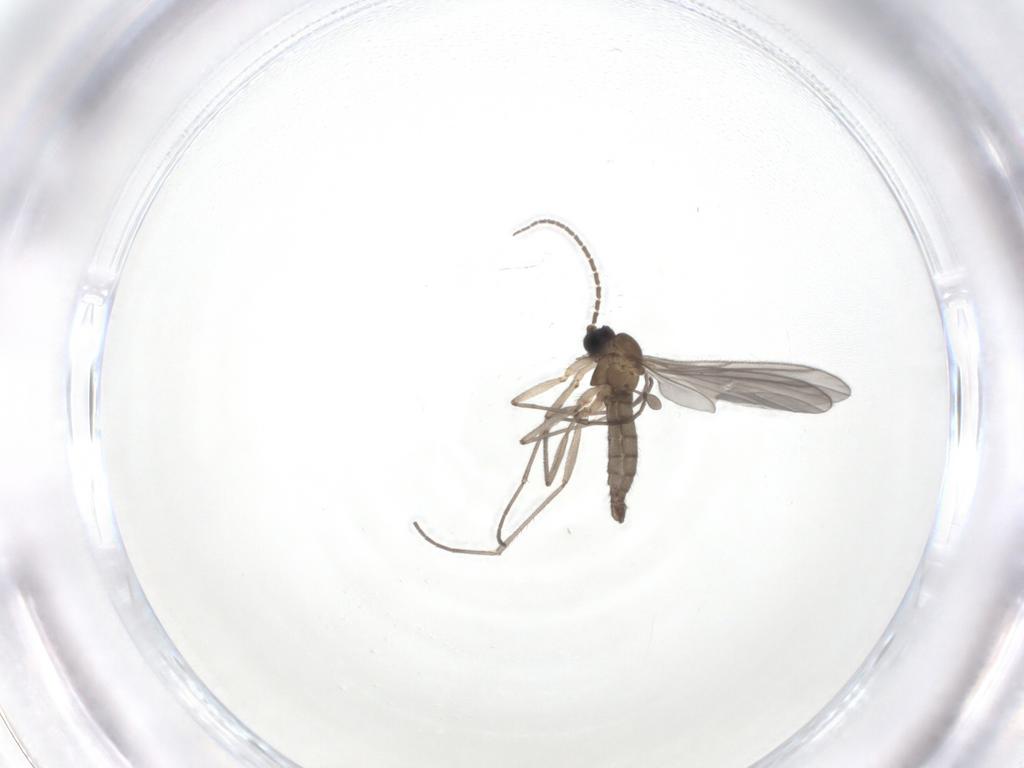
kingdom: Animalia
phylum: Arthropoda
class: Insecta
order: Diptera
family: Sciaridae
